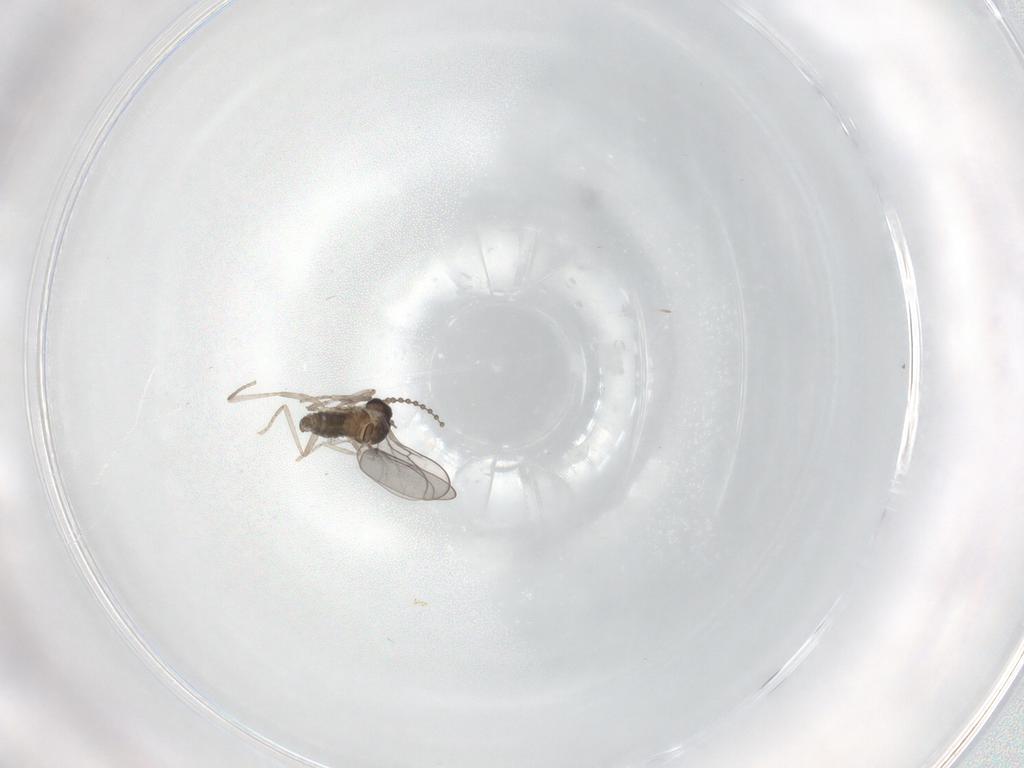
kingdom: Animalia
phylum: Arthropoda
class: Insecta
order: Diptera
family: Cecidomyiidae
